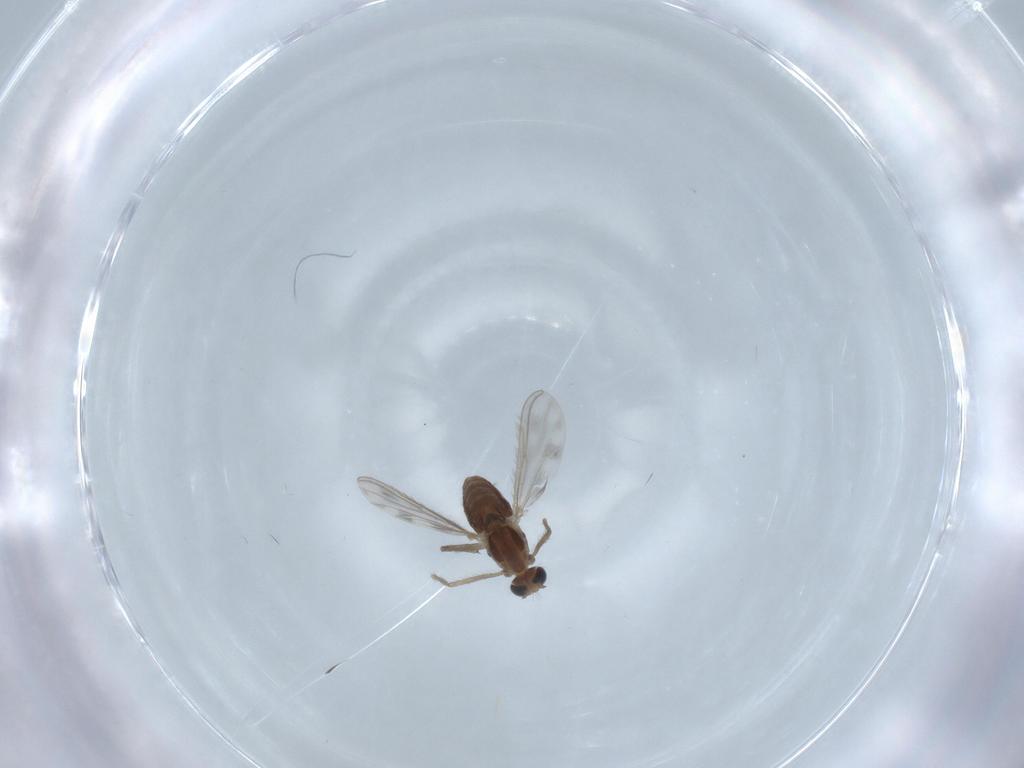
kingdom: Animalia
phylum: Arthropoda
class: Insecta
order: Diptera
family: Chironomidae
